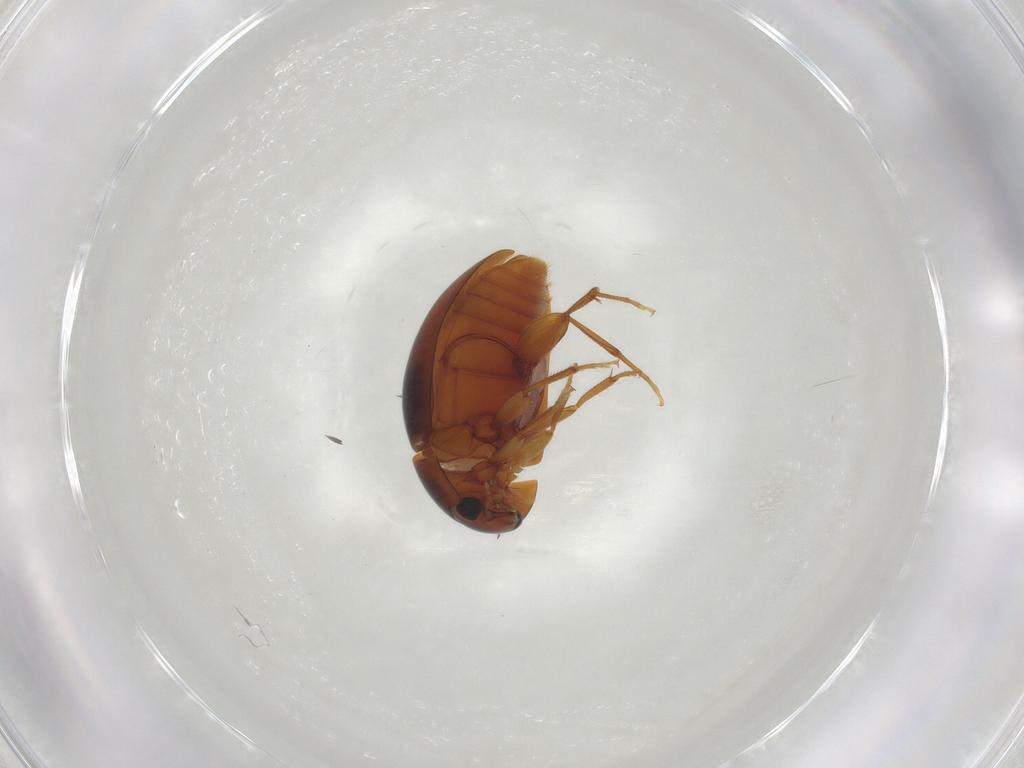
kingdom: Animalia
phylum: Arthropoda
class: Insecta
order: Coleoptera
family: Phalacridae
